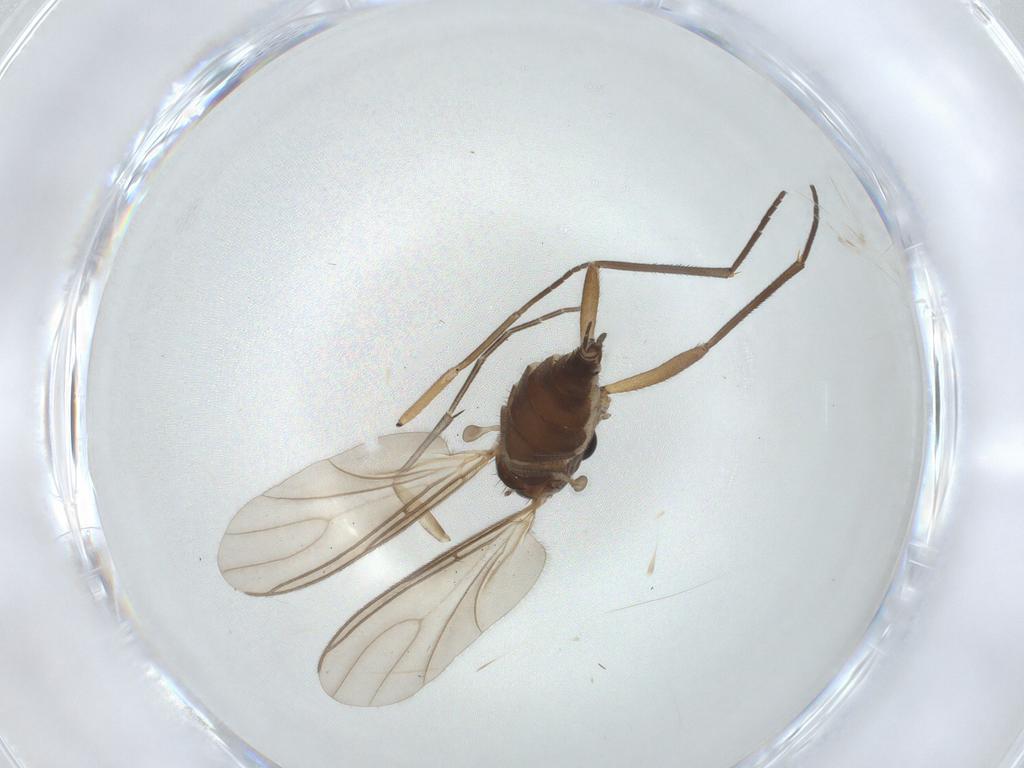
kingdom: Animalia
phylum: Arthropoda
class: Insecta
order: Diptera
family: Sciaridae
